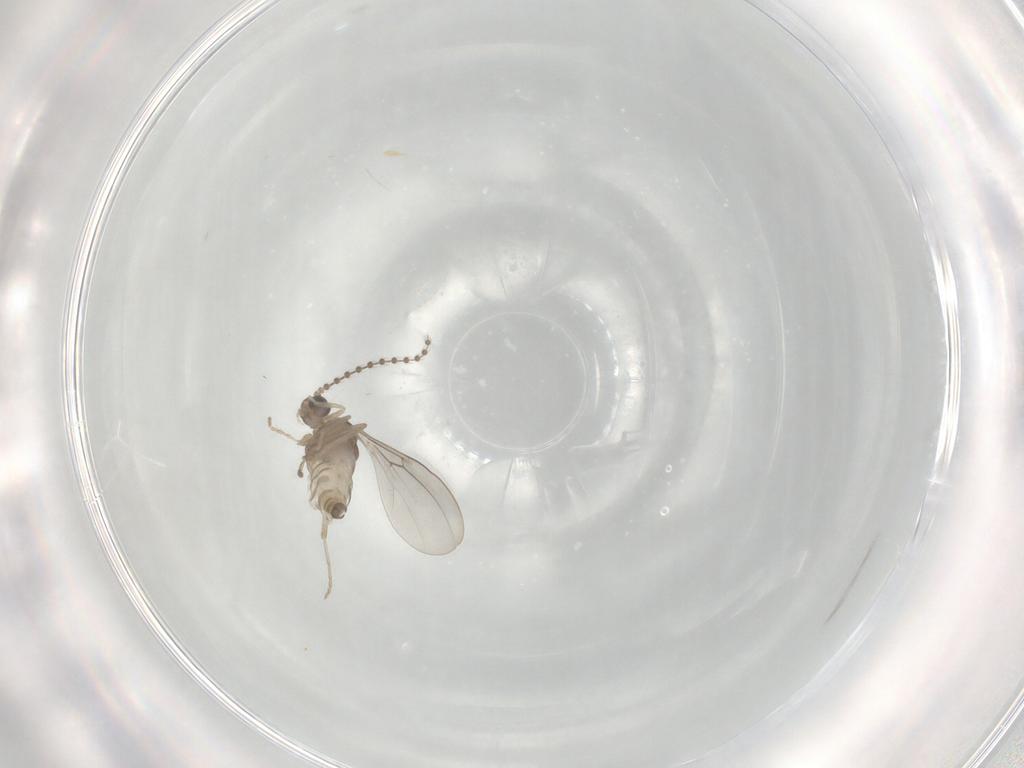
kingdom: Animalia
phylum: Arthropoda
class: Insecta
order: Diptera
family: Cecidomyiidae
